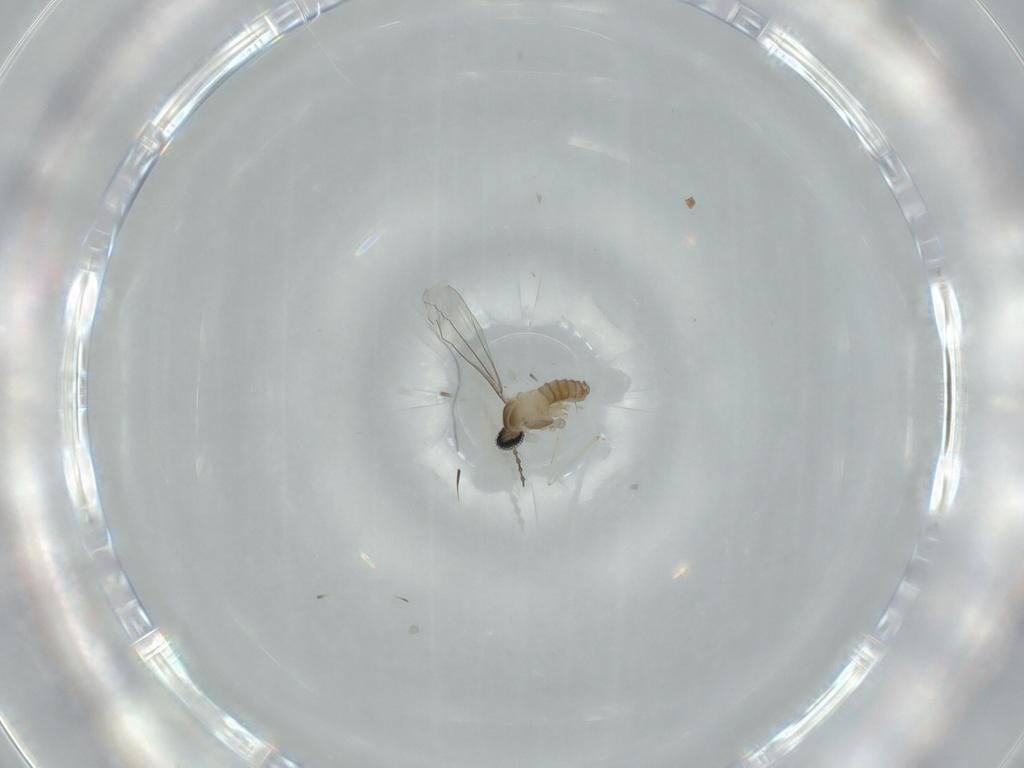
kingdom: Animalia
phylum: Arthropoda
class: Insecta
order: Diptera
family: Cecidomyiidae
